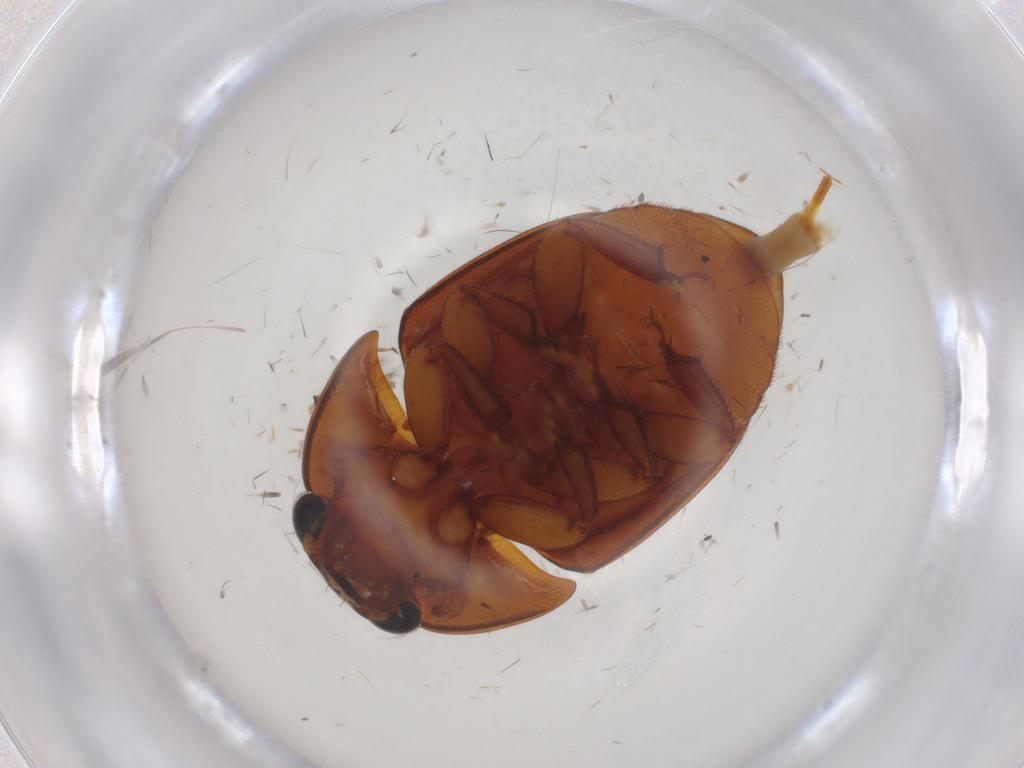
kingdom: Animalia
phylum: Arthropoda
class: Insecta
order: Coleoptera
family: Nitidulidae
